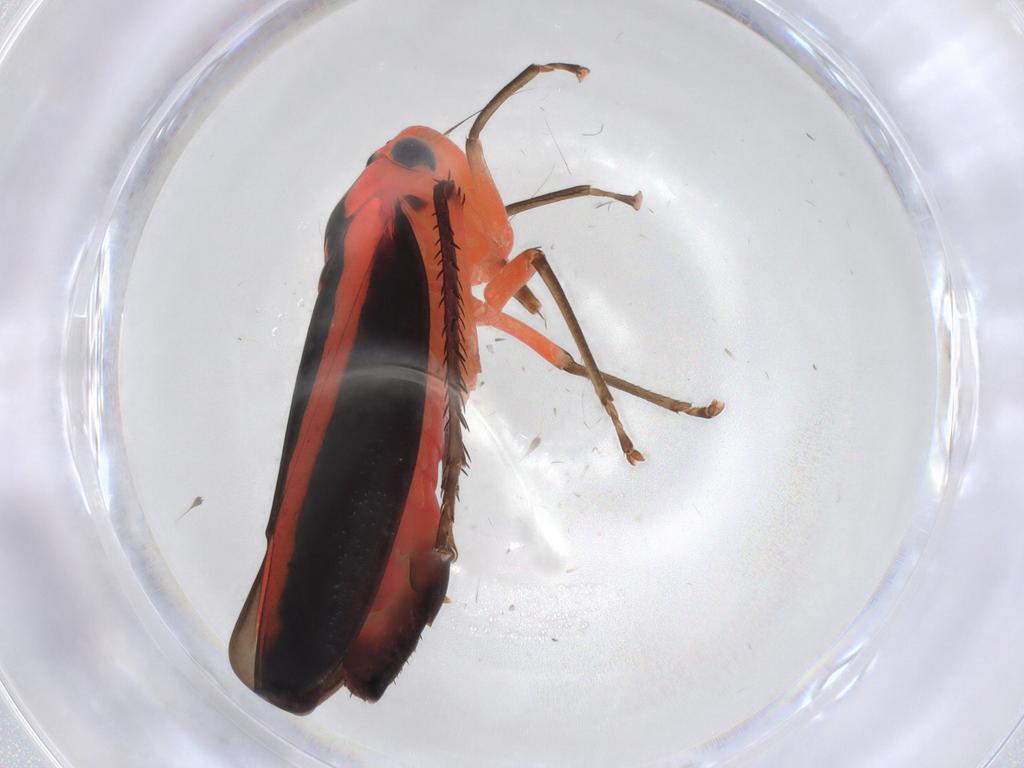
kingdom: Animalia
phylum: Arthropoda
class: Insecta
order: Hemiptera
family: Cicadellidae
